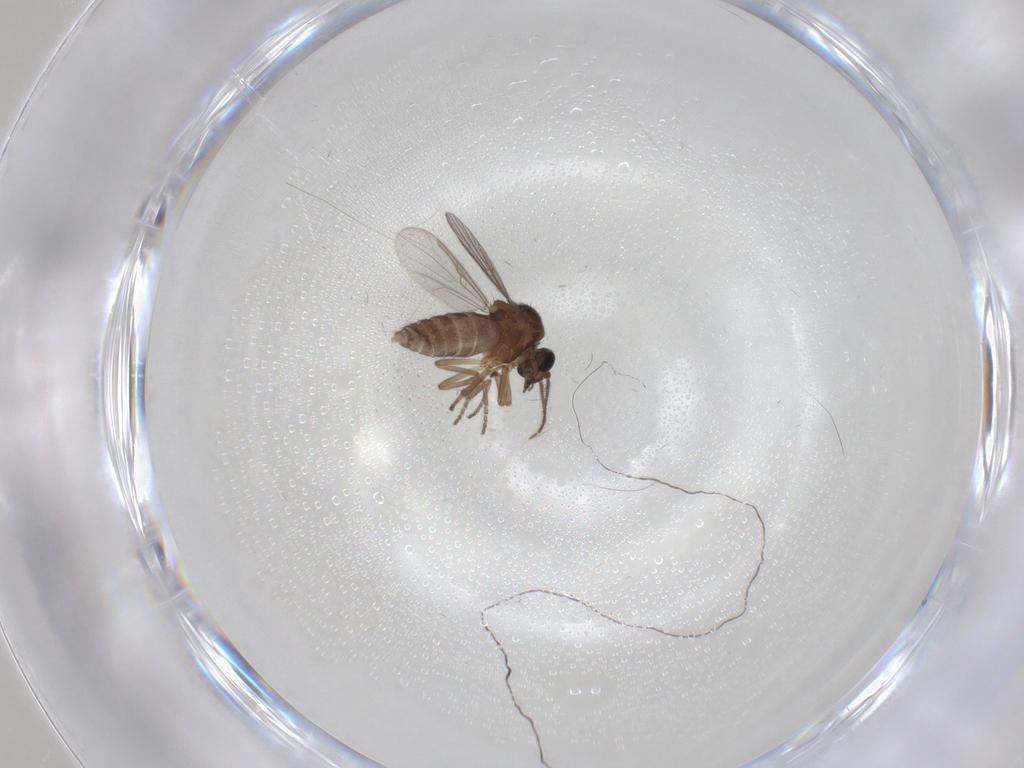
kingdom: Animalia
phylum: Arthropoda
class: Insecta
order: Diptera
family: Ceratopogonidae
